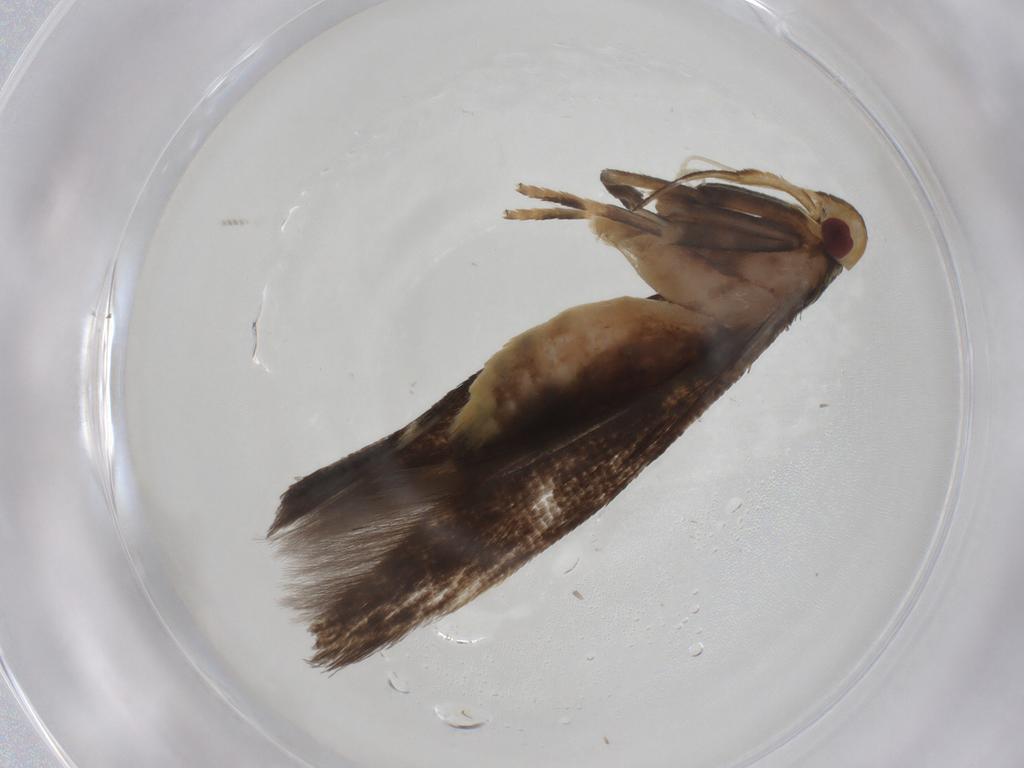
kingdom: Animalia
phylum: Arthropoda
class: Insecta
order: Lepidoptera
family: Cosmopterigidae
